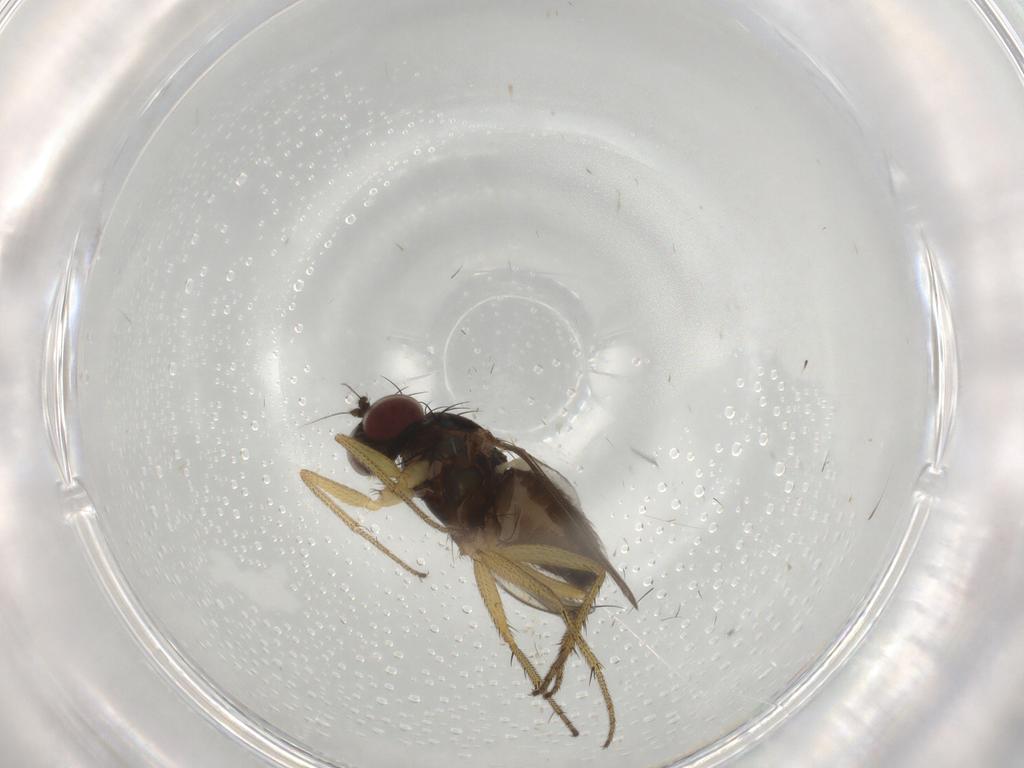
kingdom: Animalia
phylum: Arthropoda
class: Insecta
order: Diptera
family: Dolichopodidae
